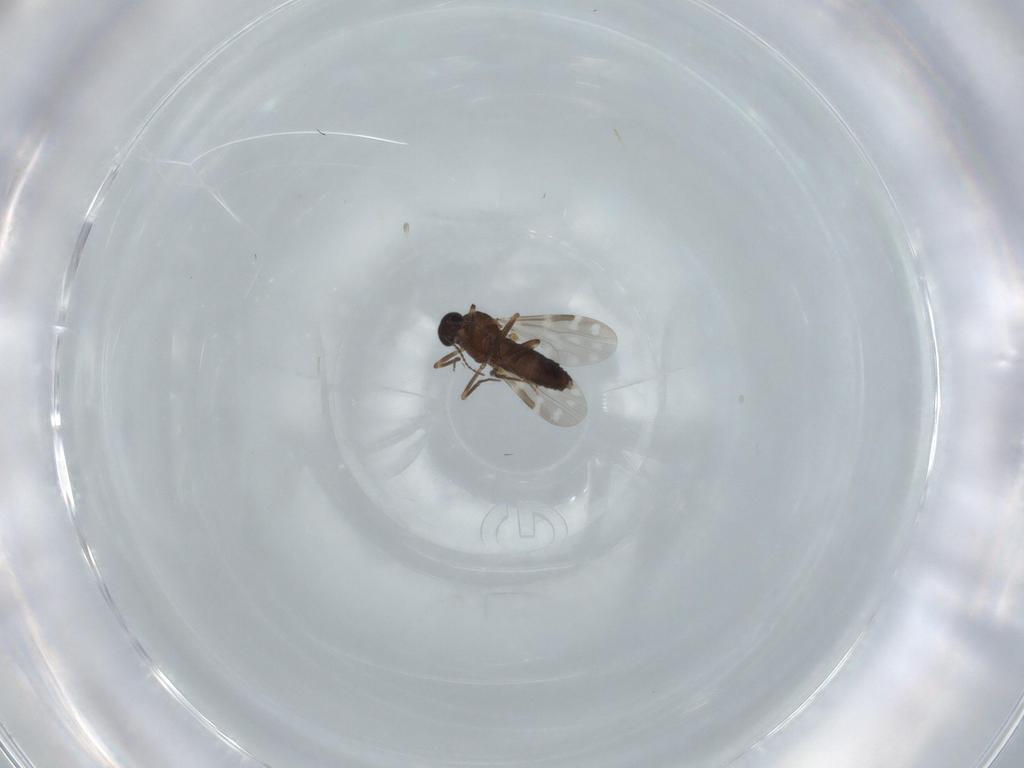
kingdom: Animalia
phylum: Arthropoda
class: Insecta
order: Diptera
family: Cecidomyiidae
